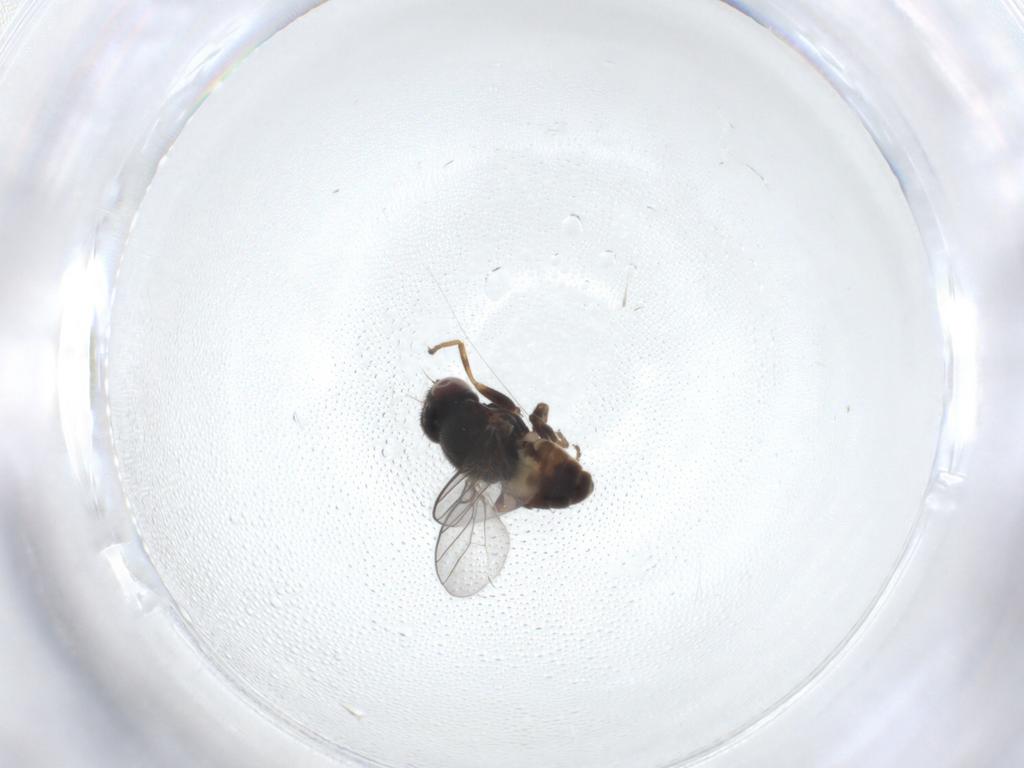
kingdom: Animalia
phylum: Arthropoda
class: Insecta
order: Diptera
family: Chloropidae
